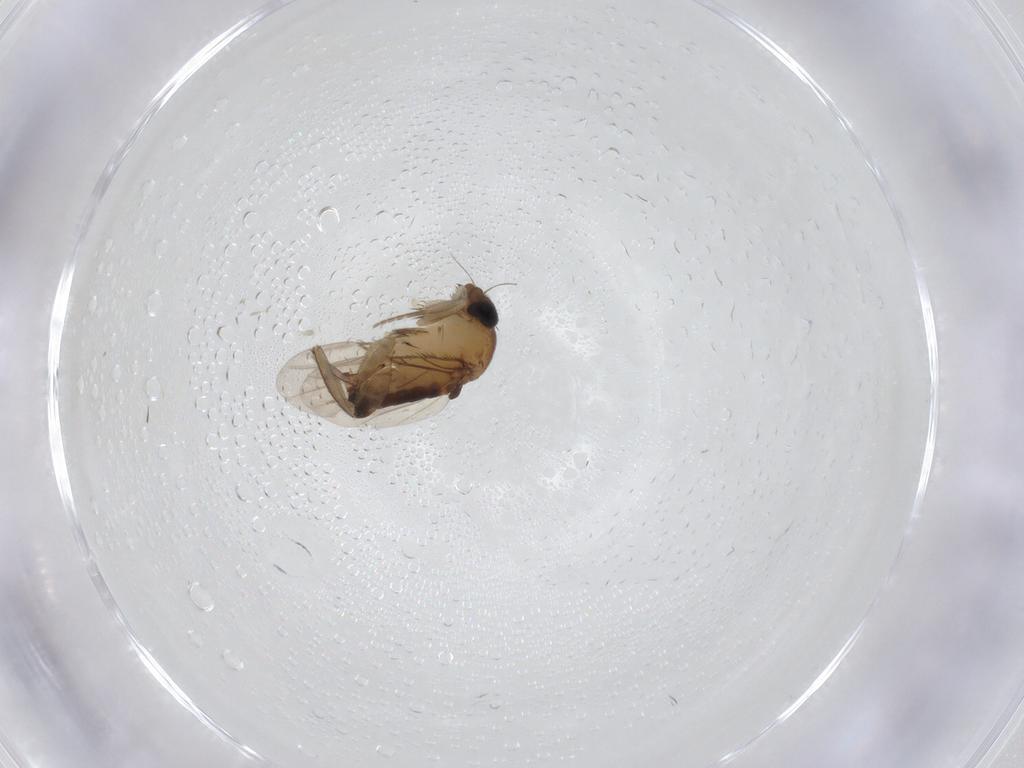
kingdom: Animalia
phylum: Arthropoda
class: Insecta
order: Diptera
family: Phoridae
